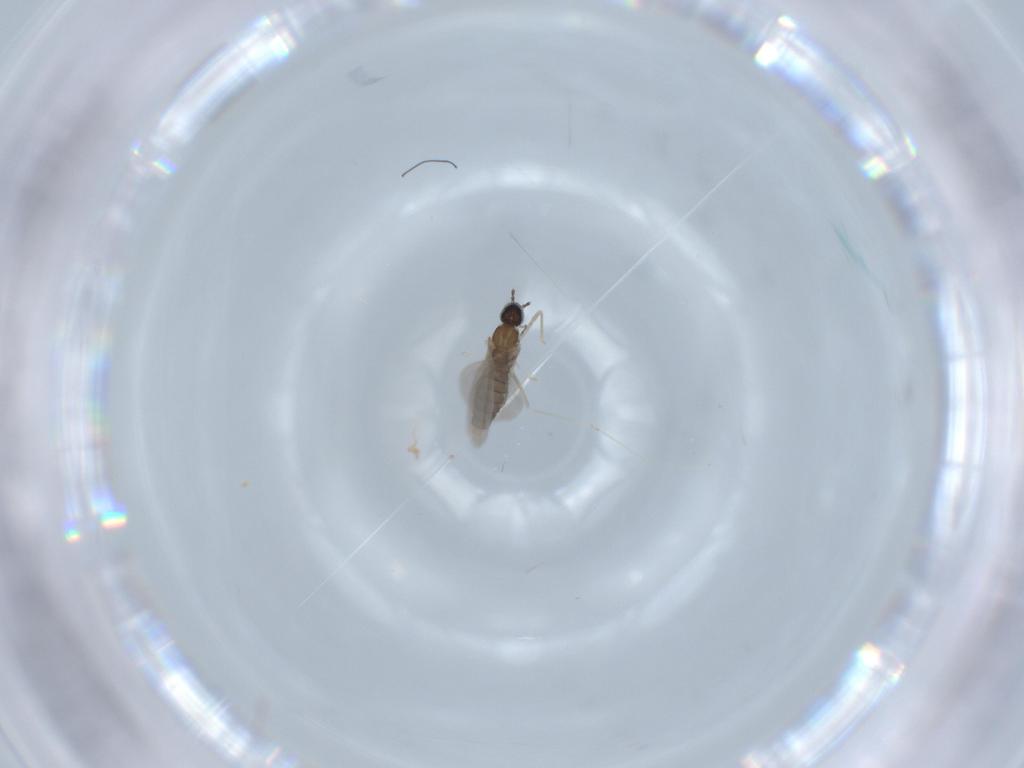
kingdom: Animalia
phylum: Arthropoda
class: Insecta
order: Diptera
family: Cecidomyiidae
